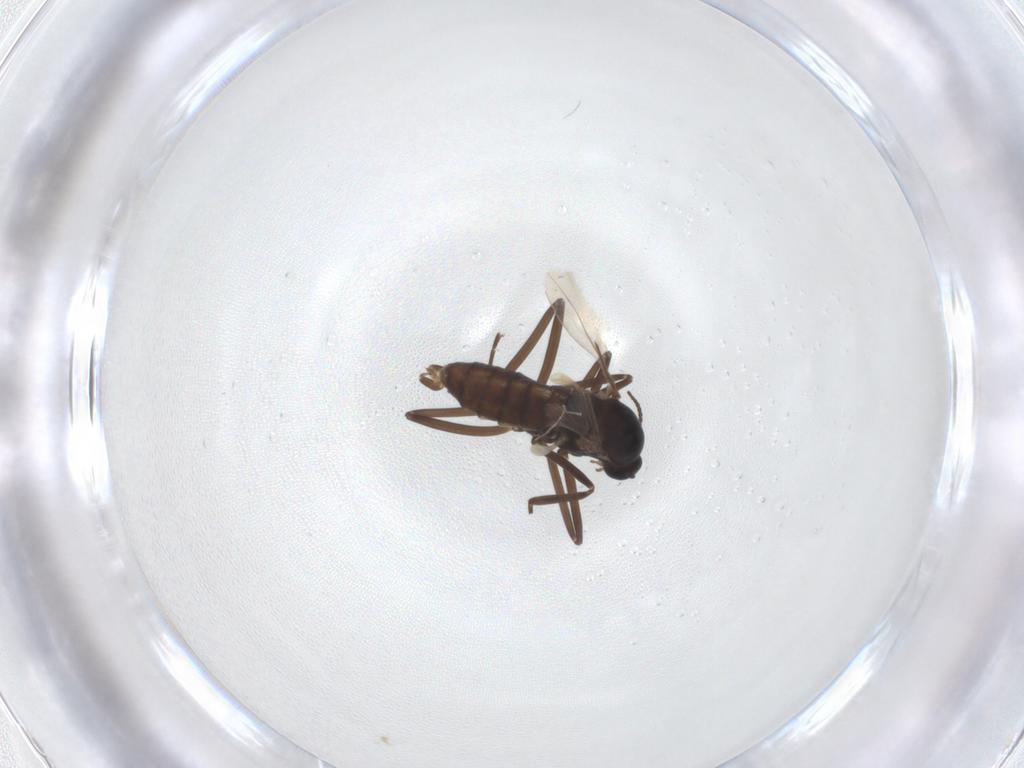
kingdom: Animalia
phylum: Arthropoda
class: Insecta
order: Diptera
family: Cecidomyiidae
